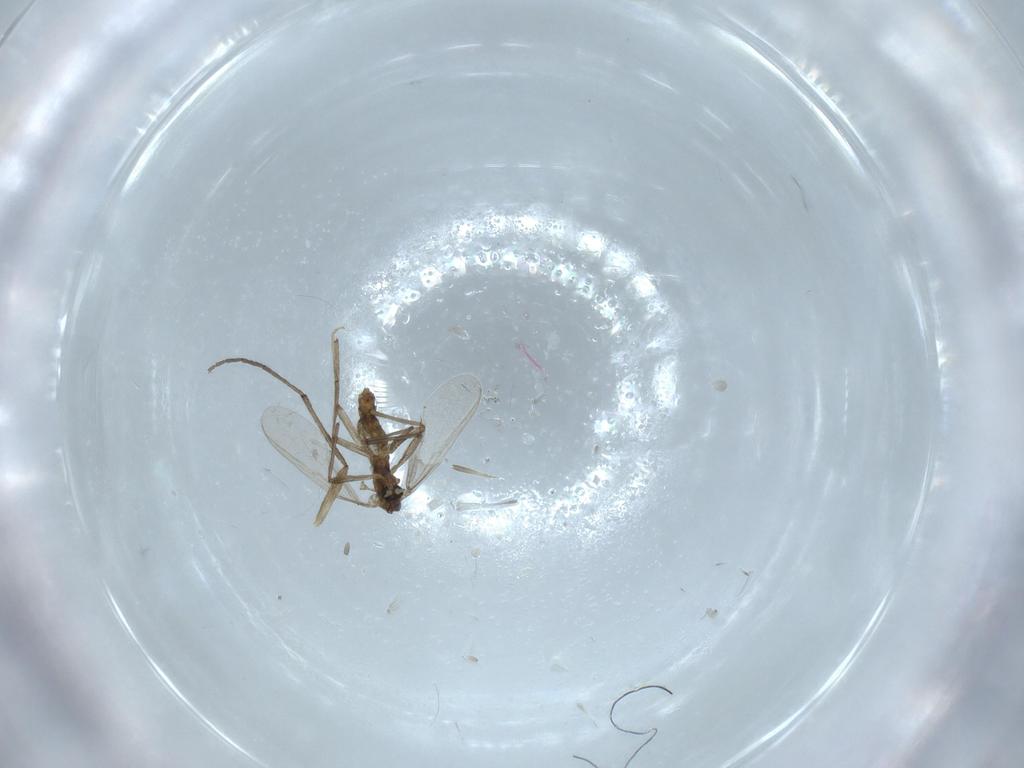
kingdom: Animalia
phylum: Arthropoda
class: Insecta
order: Diptera
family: Chironomidae
